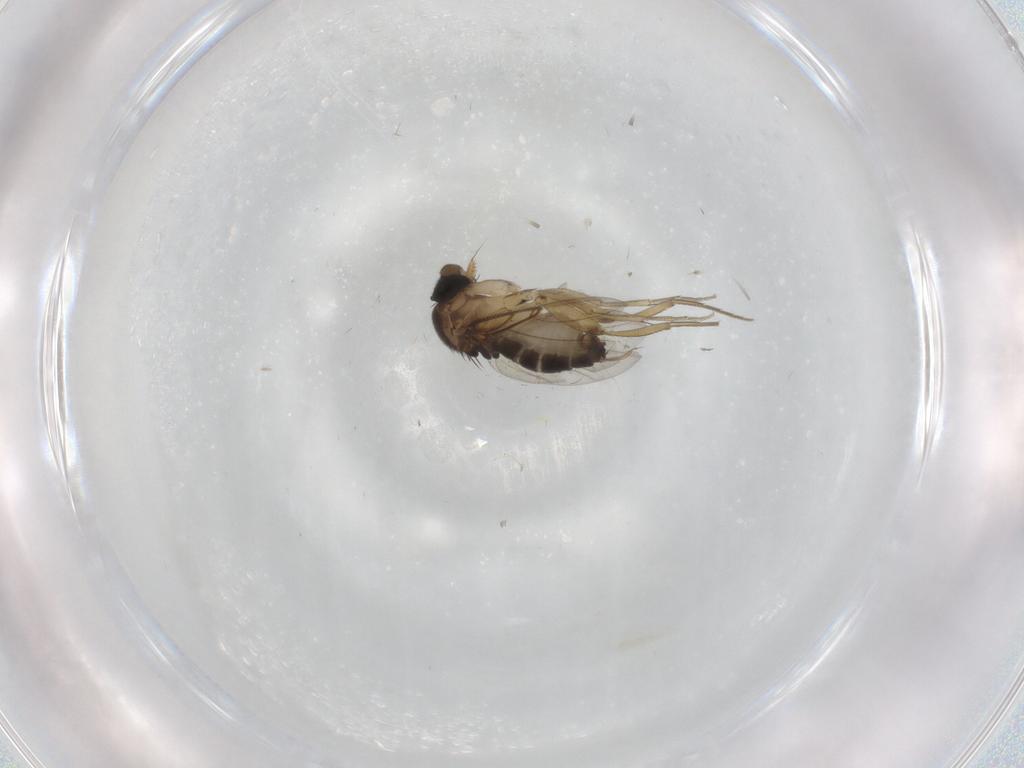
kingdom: Animalia
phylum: Arthropoda
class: Insecta
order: Diptera
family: Phoridae
